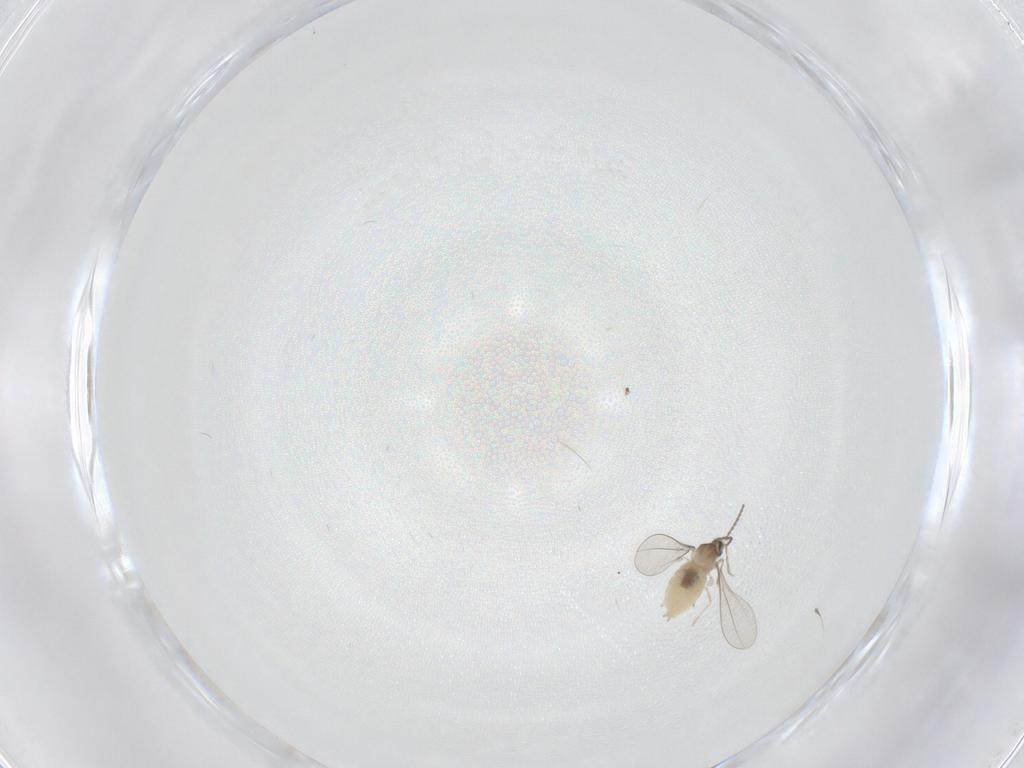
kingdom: Animalia
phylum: Arthropoda
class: Insecta
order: Diptera
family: Cecidomyiidae
